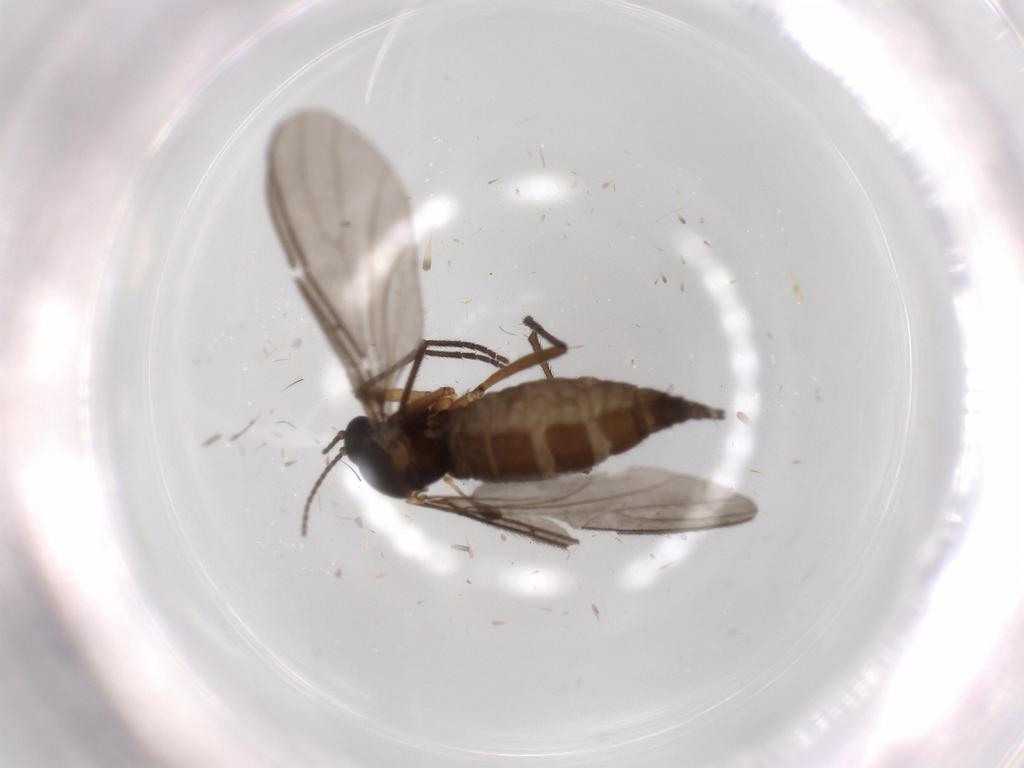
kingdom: Animalia
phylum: Arthropoda
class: Insecta
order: Diptera
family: Sciaridae
